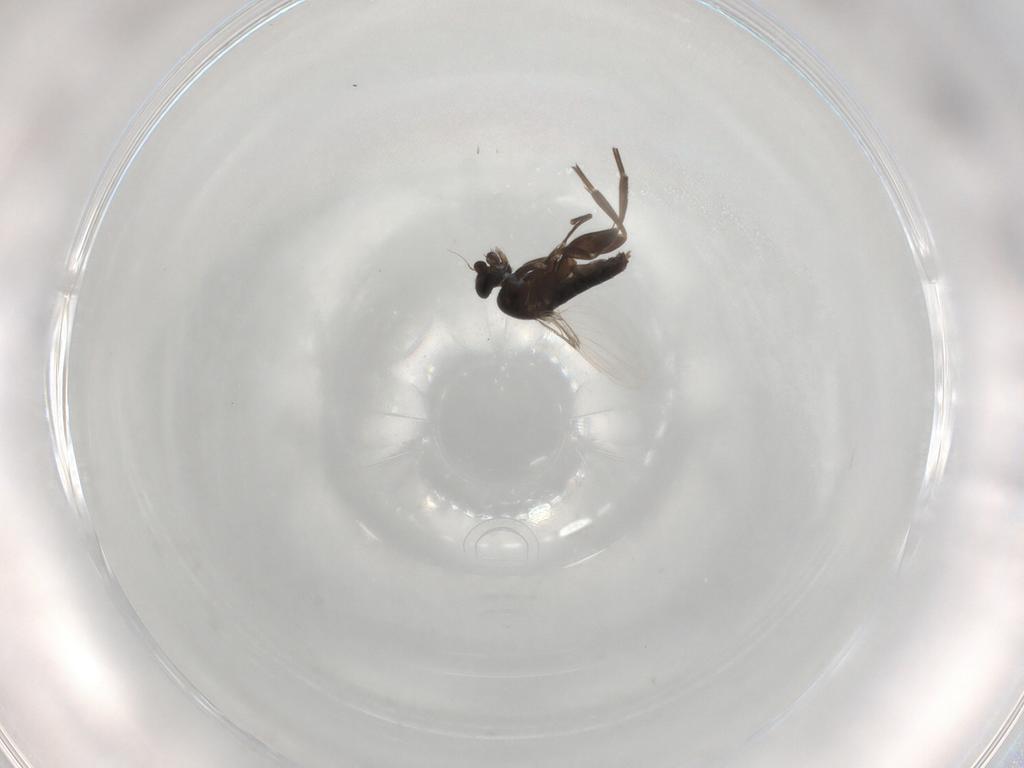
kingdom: Animalia
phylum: Arthropoda
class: Insecta
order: Diptera
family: Phoridae
